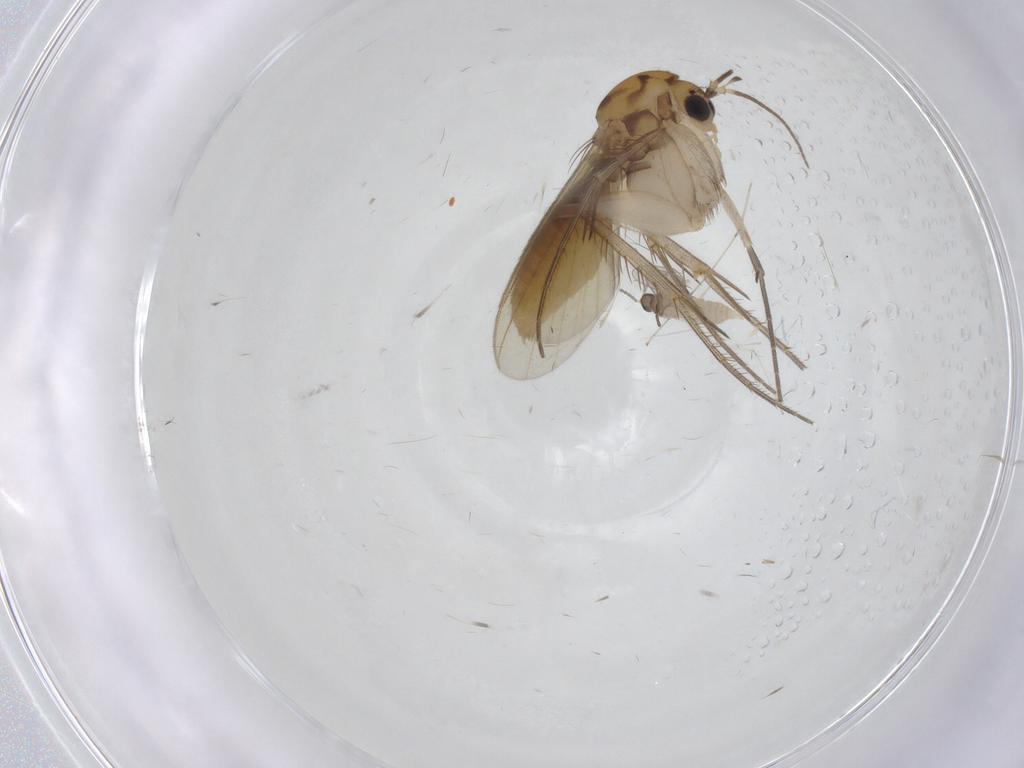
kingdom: Animalia
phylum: Arthropoda
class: Insecta
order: Diptera
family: Mycetophilidae
